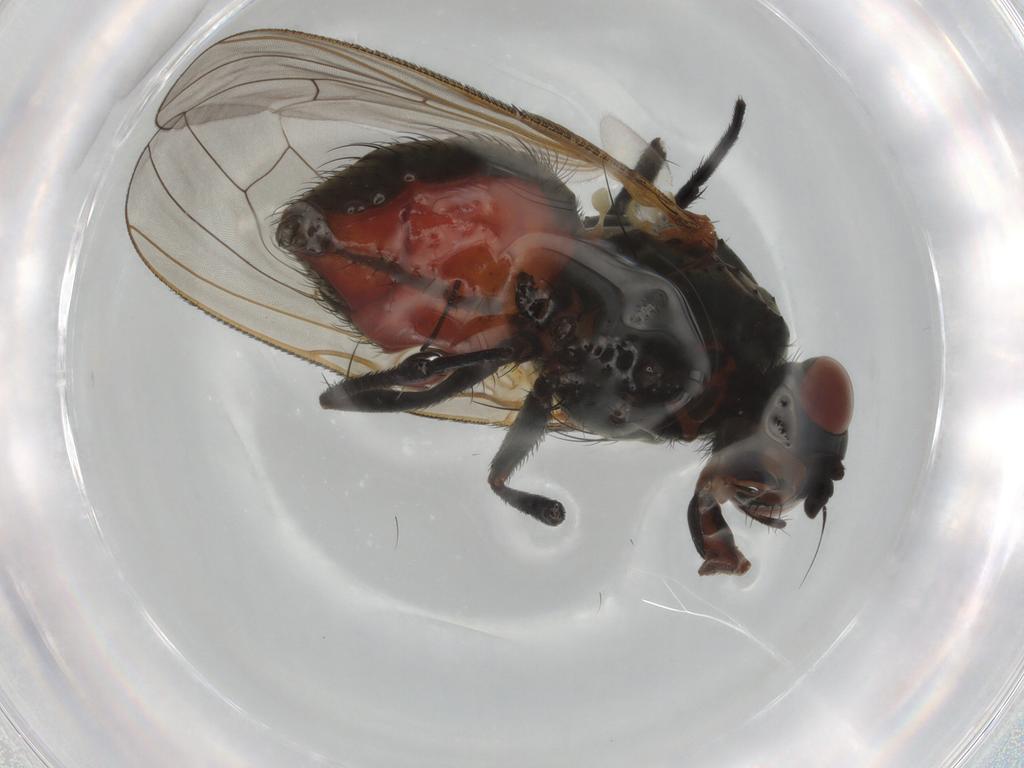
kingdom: Animalia
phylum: Arthropoda
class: Insecta
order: Diptera
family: Anthomyiidae
